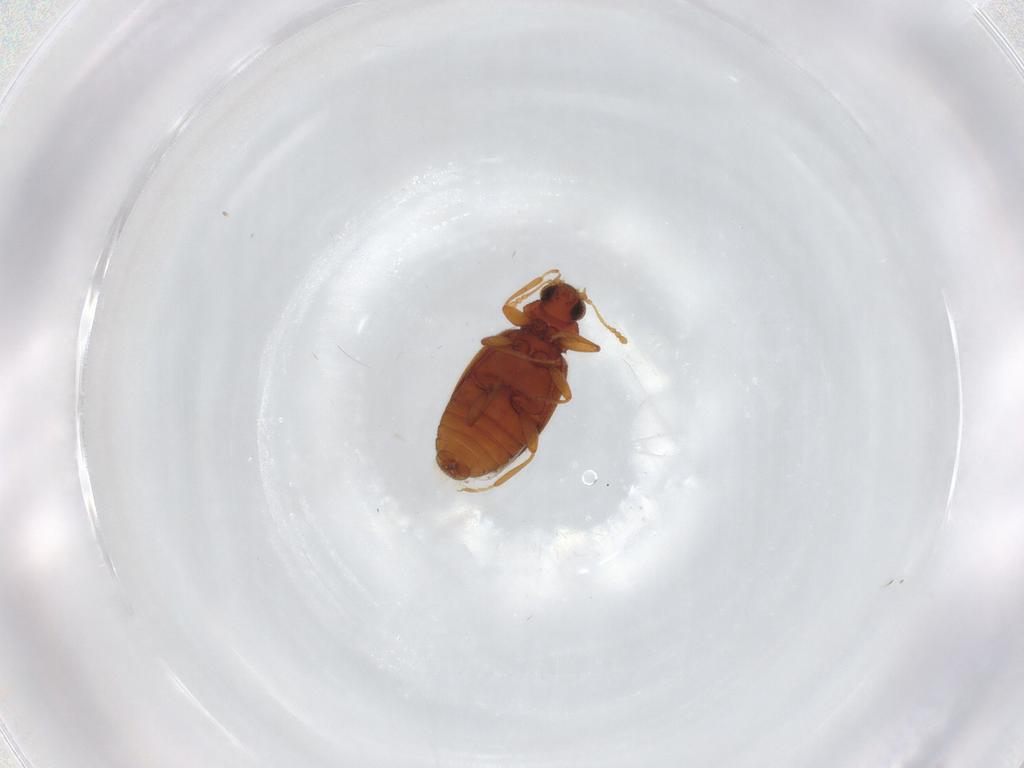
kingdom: Animalia
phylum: Arthropoda
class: Insecta
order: Coleoptera
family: Latridiidae
